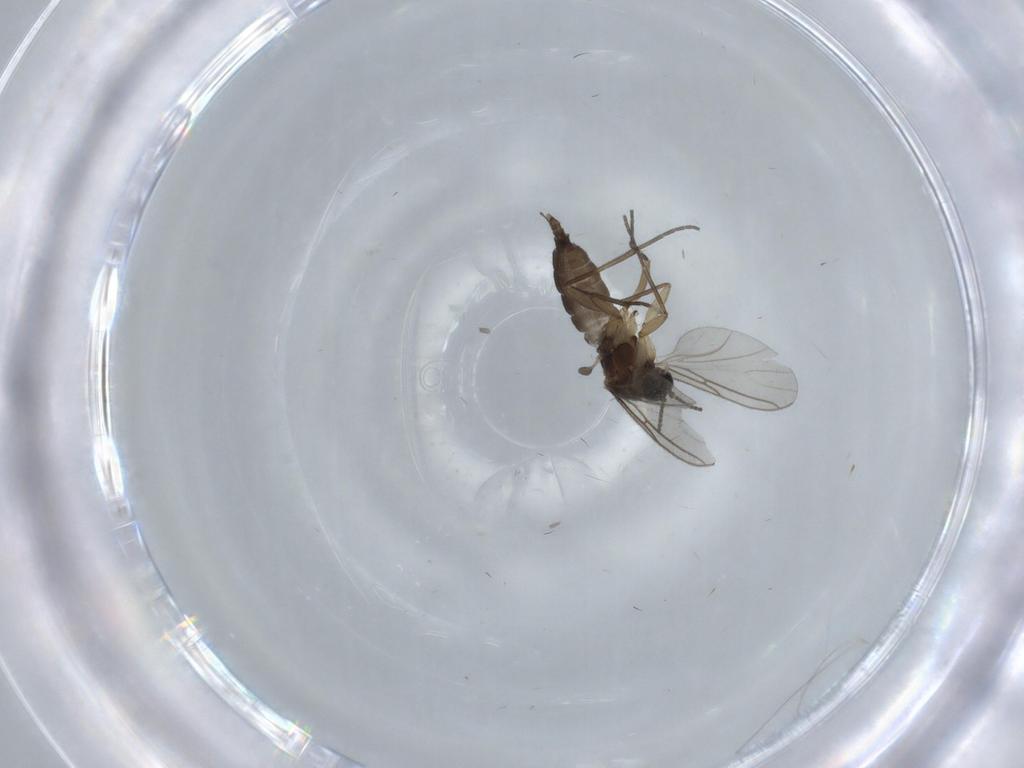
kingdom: Animalia
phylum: Arthropoda
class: Insecta
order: Diptera
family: Sciaridae
